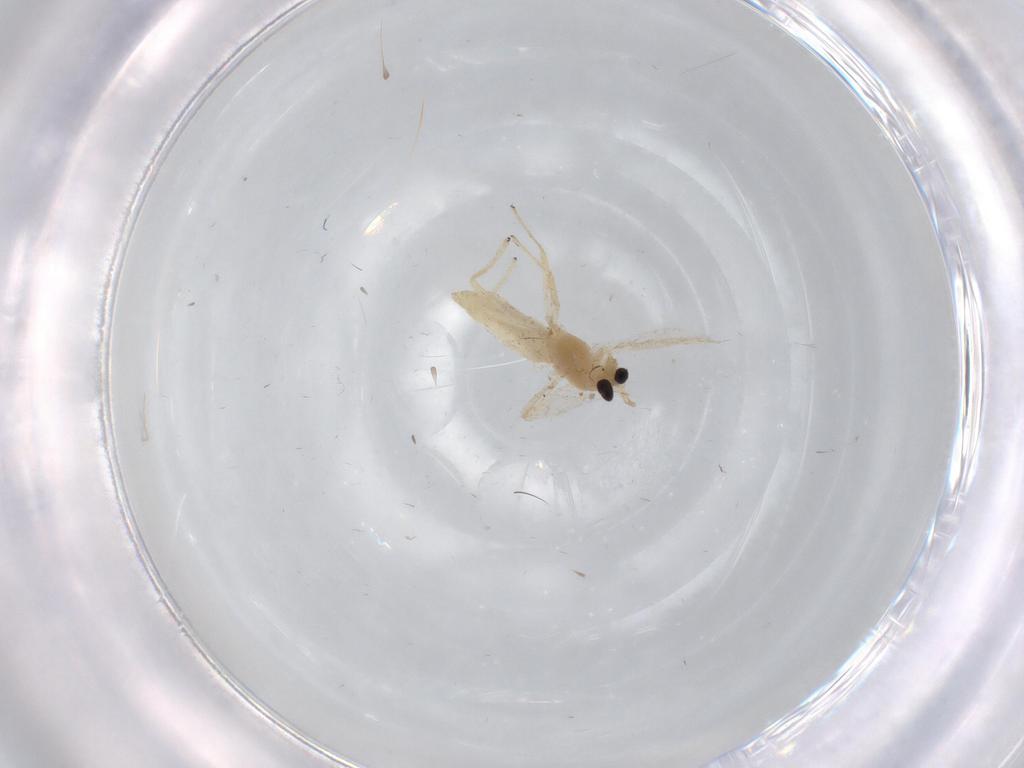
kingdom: Animalia
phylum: Arthropoda
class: Insecta
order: Diptera
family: Chironomidae
